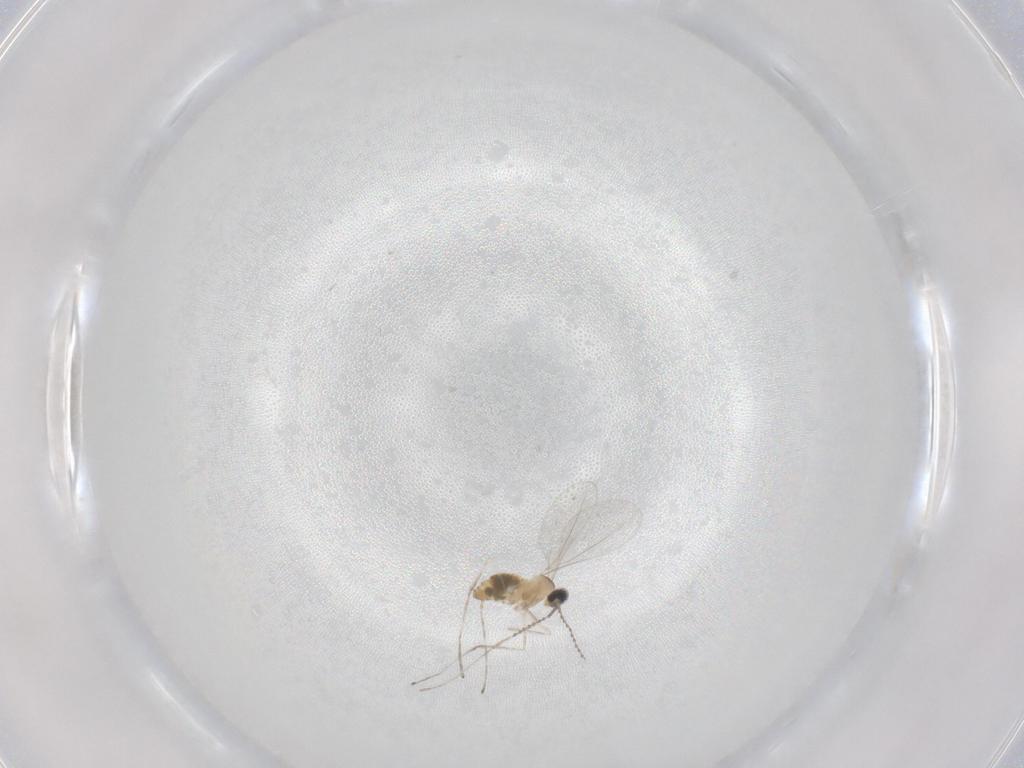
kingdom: Animalia
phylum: Arthropoda
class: Insecta
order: Diptera
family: Cecidomyiidae
